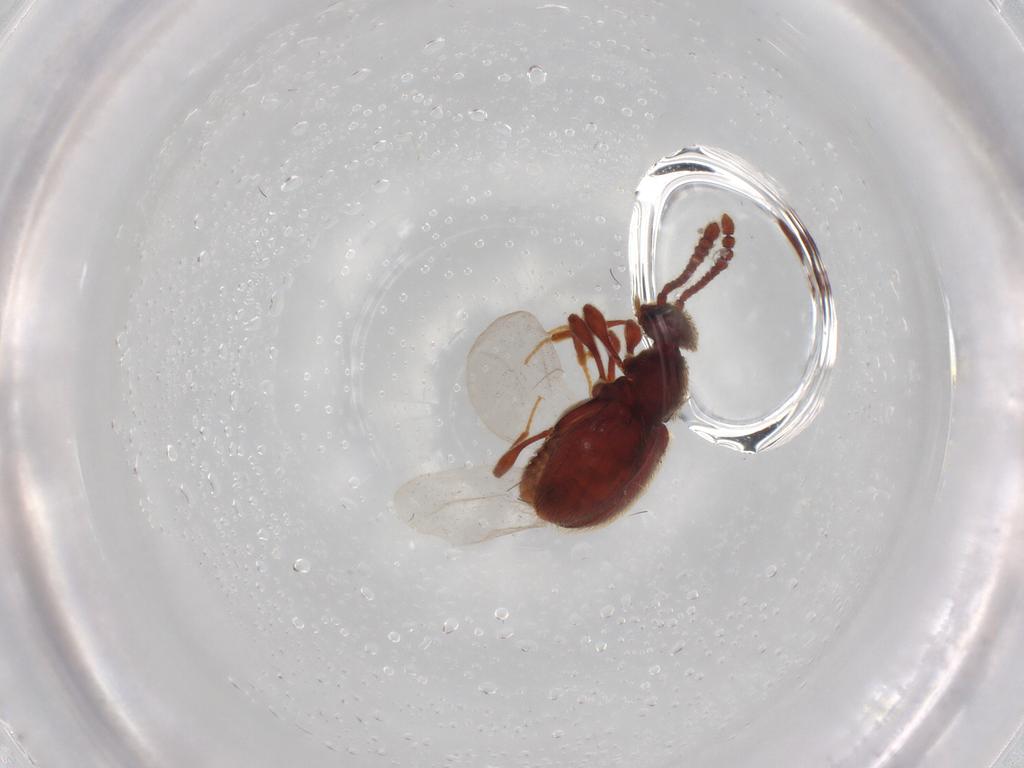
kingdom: Animalia
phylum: Arthropoda
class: Insecta
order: Coleoptera
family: Staphylinidae
